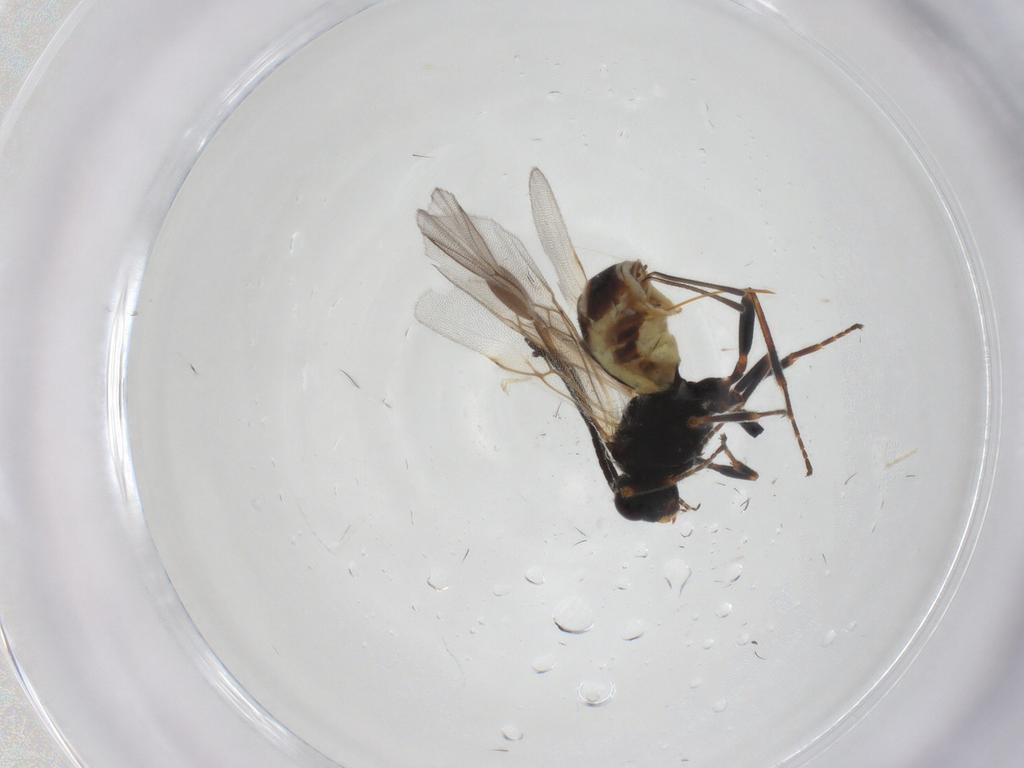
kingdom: Animalia
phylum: Arthropoda
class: Insecta
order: Hymenoptera
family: Braconidae
